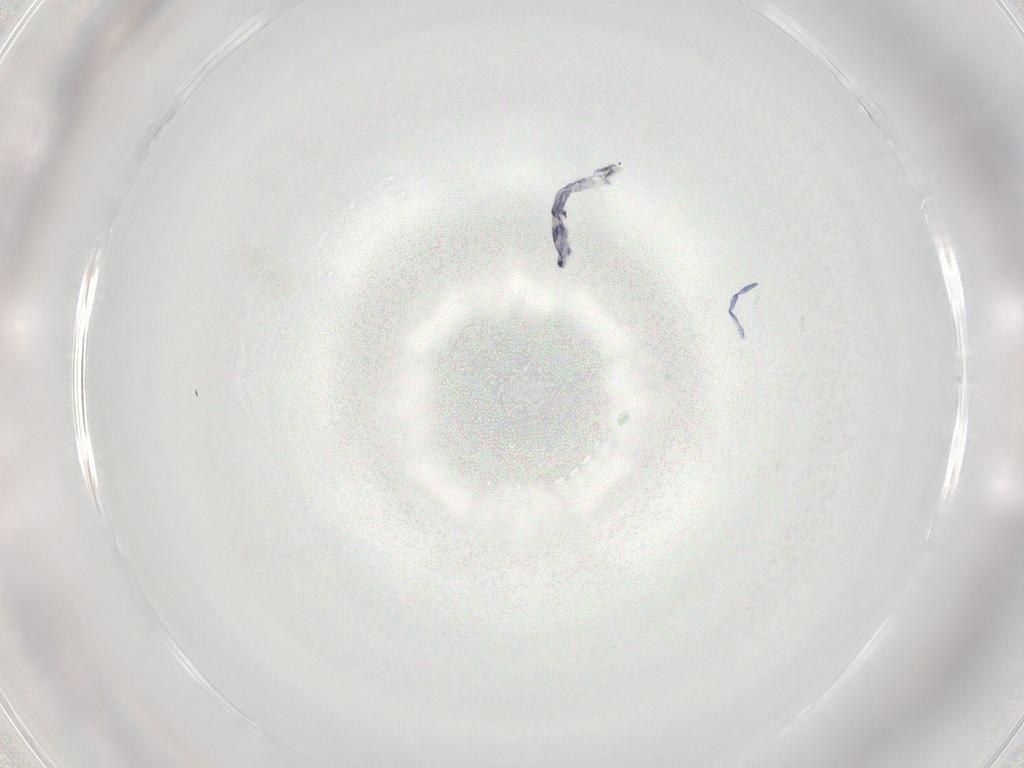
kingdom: Animalia
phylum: Arthropoda
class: Collembola
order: Entomobryomorpha
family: Entomobryidae
